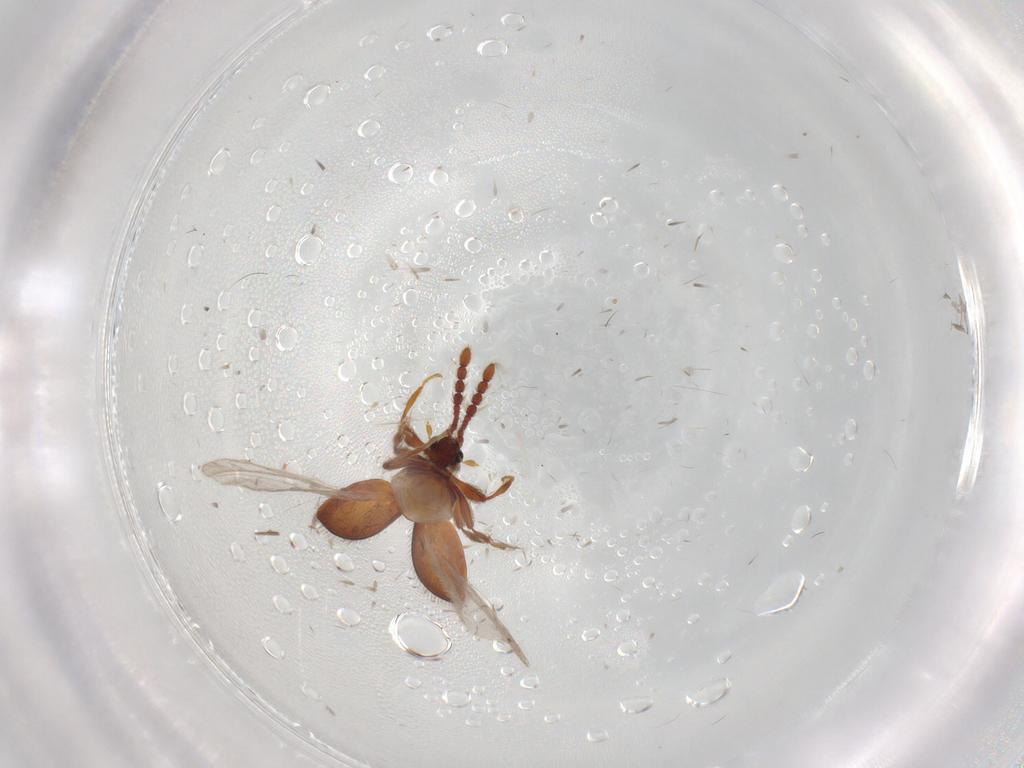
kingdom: Animalia
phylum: Arthropoda
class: Insecta
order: Coleoptera
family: Staphylinidae
